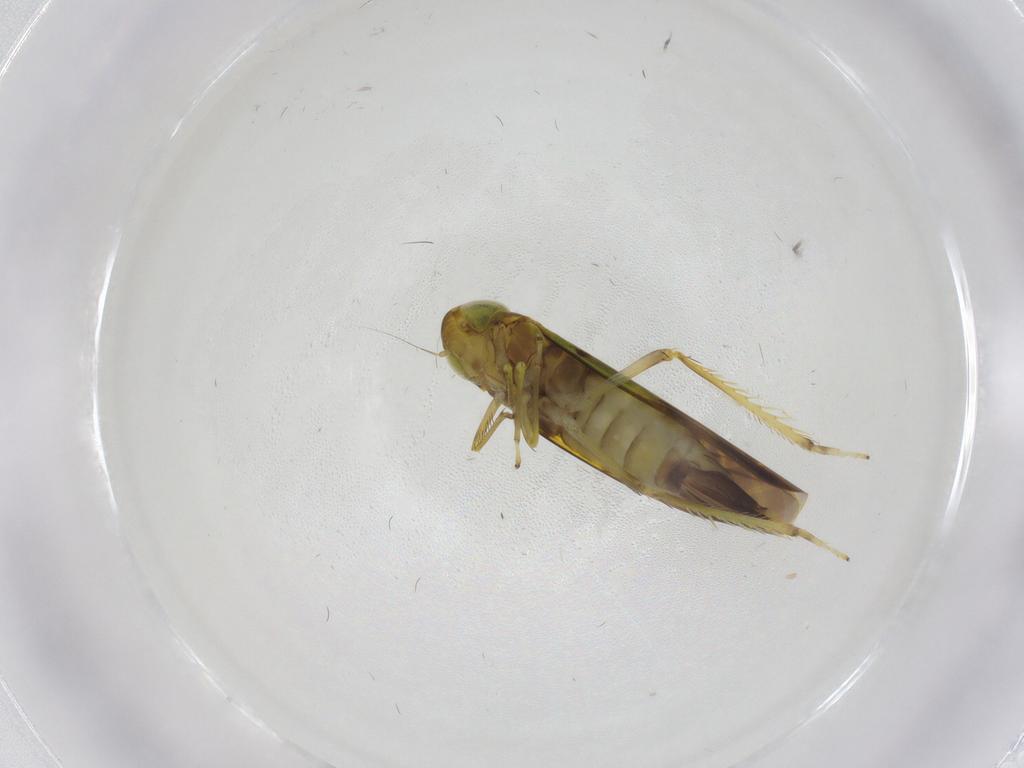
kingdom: Animalia
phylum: Arthropoda
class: Insecta
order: Hemiptera
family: Cicadellidae
